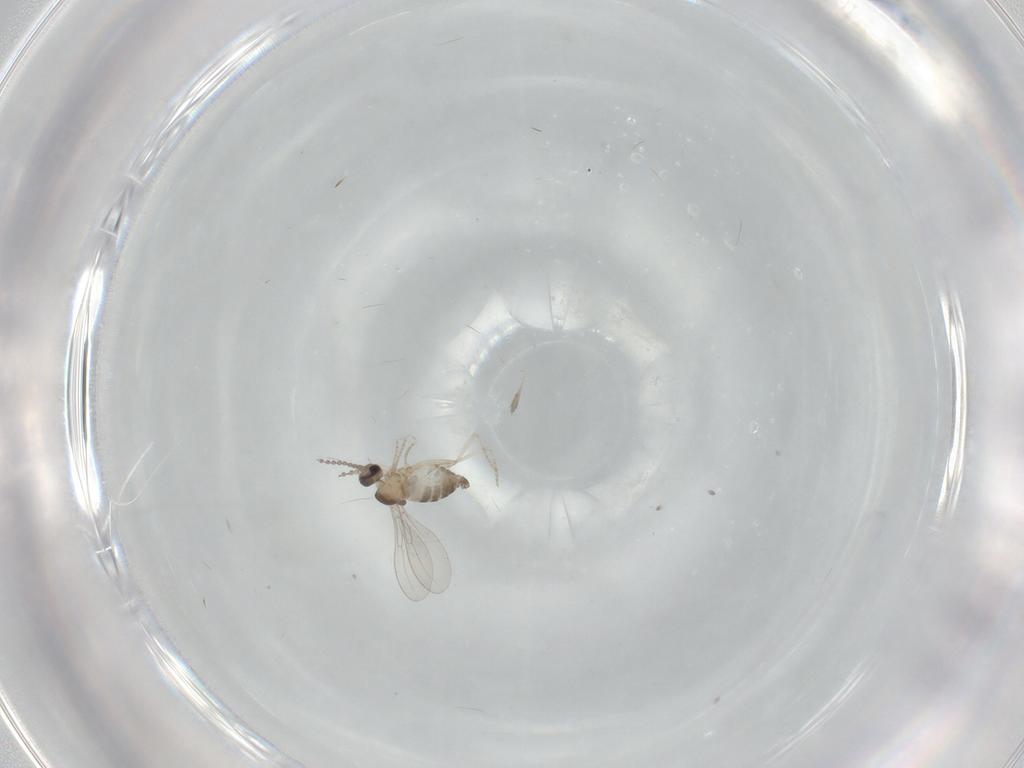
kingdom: Animalia
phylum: Arthropoda
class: Insecta
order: Diptera
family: Cecidomyiidae
